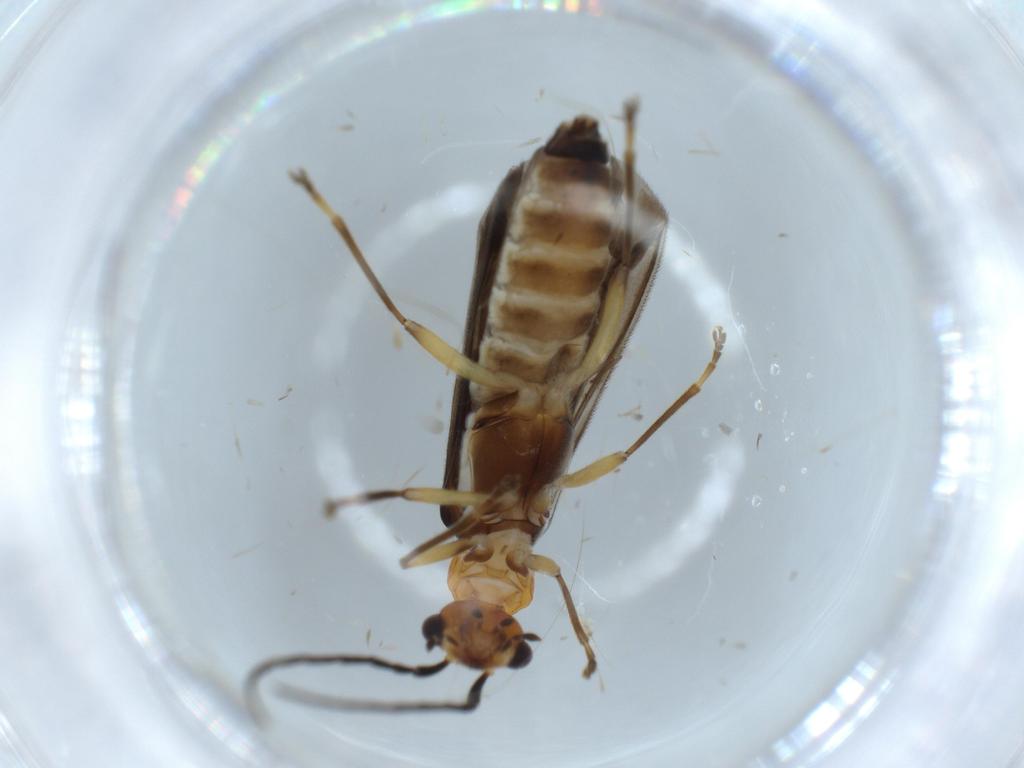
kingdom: Animalia
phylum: Arthropoda
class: Insecta
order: Coleoptera
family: Cantharidae
